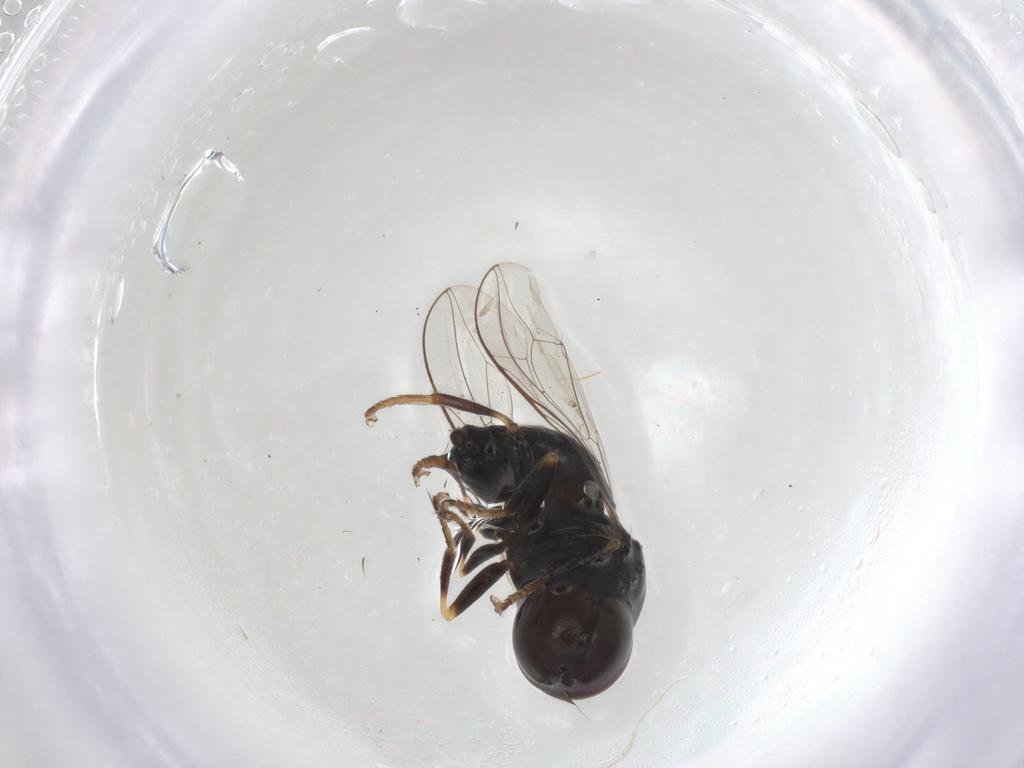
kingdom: Animalia
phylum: Arthropoda
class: Insecta
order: Diptera
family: Pipunculidae
